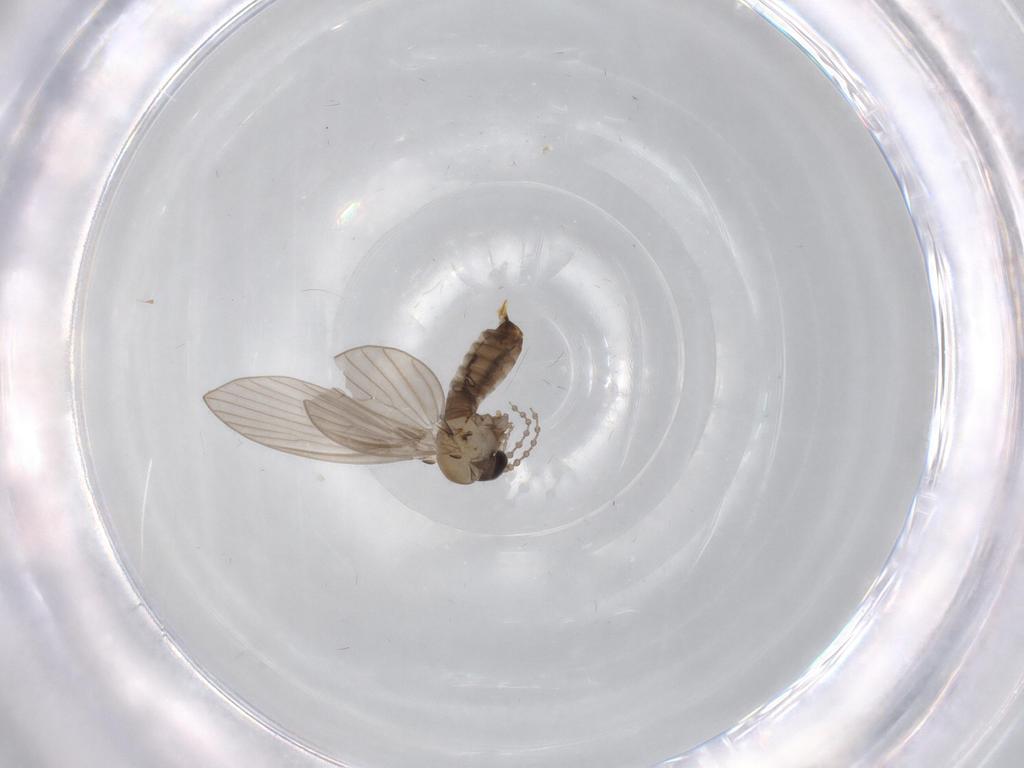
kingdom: Animalia
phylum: Arthropoda
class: Insecta
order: Diptera
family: Psychodidae
